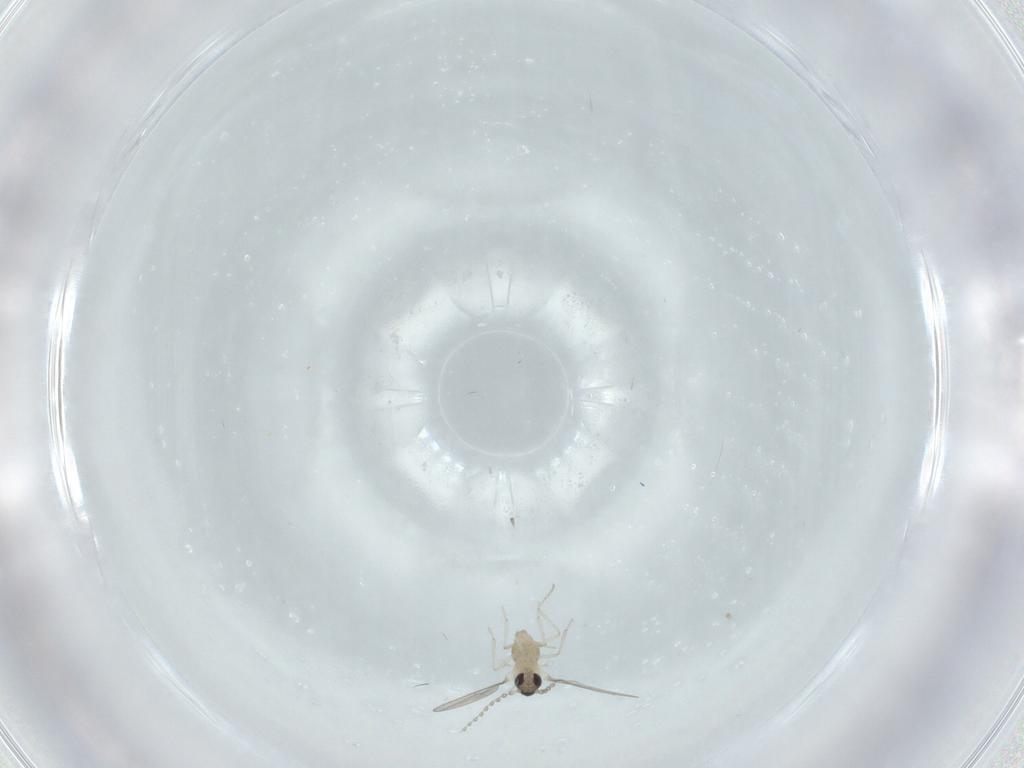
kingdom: Animalia
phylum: Arthropoda
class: Insecta
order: Diptera
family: Cecidomyiidae
